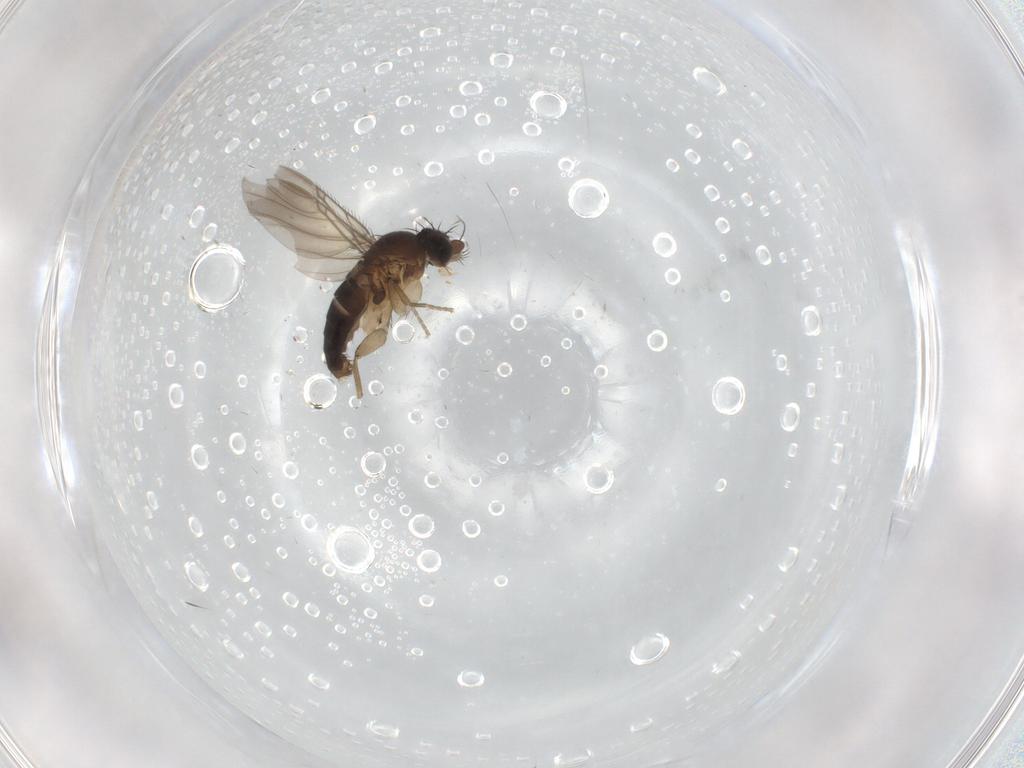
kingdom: Animalia
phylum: Arthropoda
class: Insecta
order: Diptera
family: Phoridae
